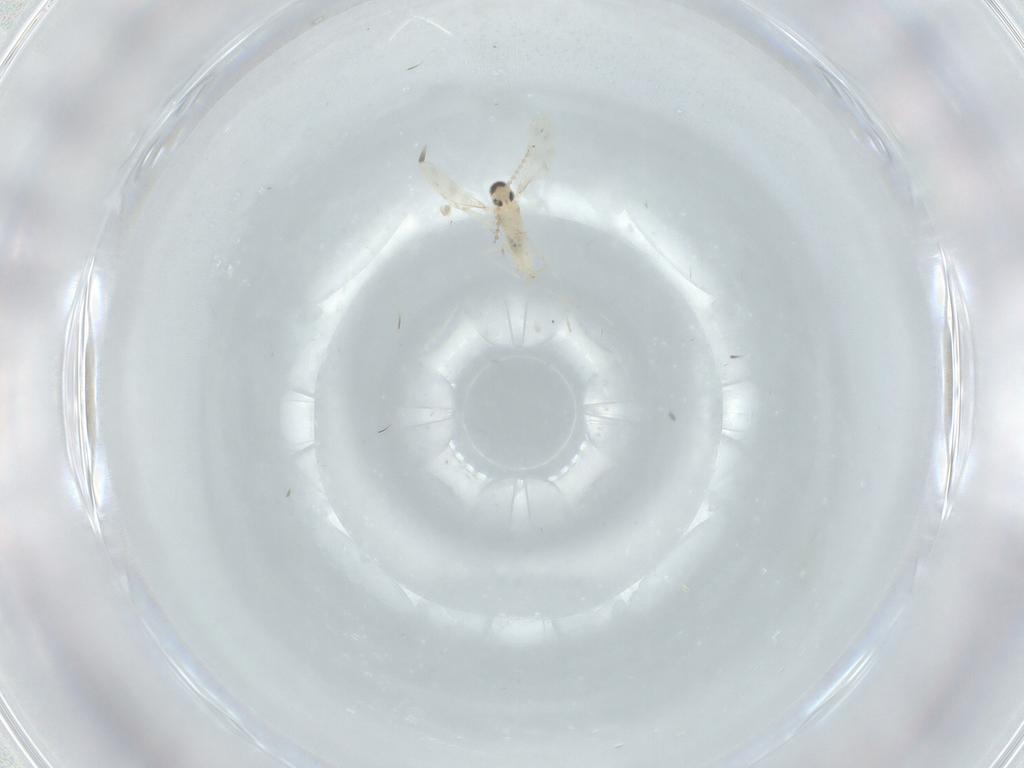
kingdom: Animalia
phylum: Arthropoda
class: Insecta
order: Diptera
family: Cecidomyiidae
